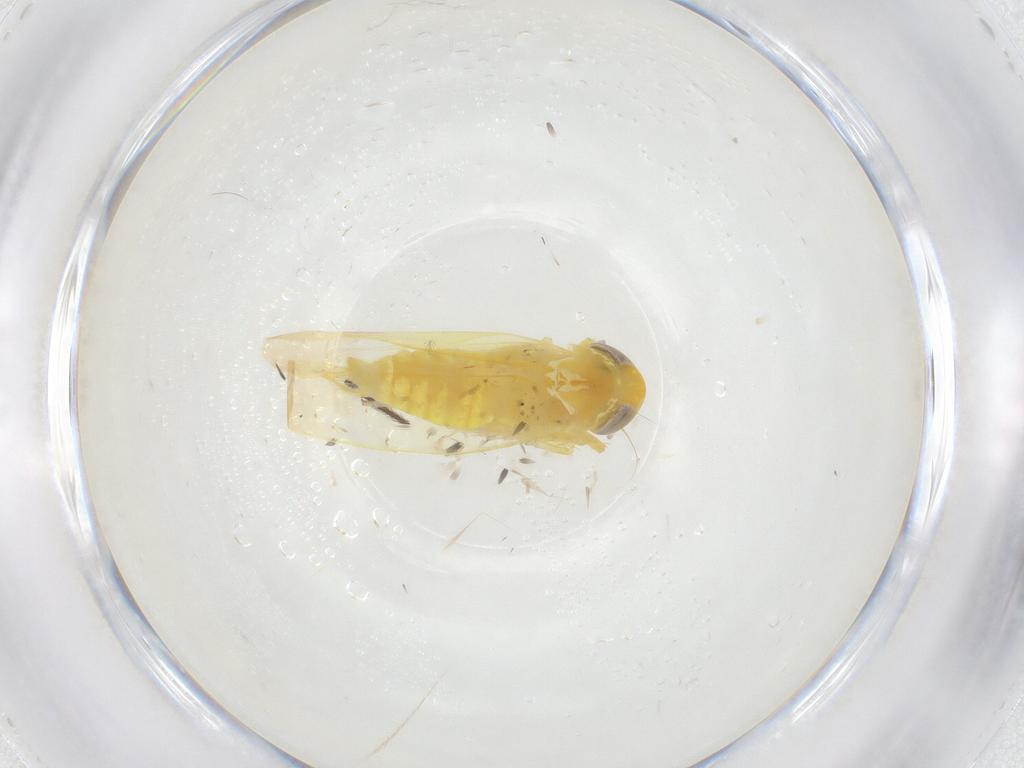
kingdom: Animalia
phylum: Arthropoda
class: Insecta
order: Hemiptera
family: Cicadellidae
